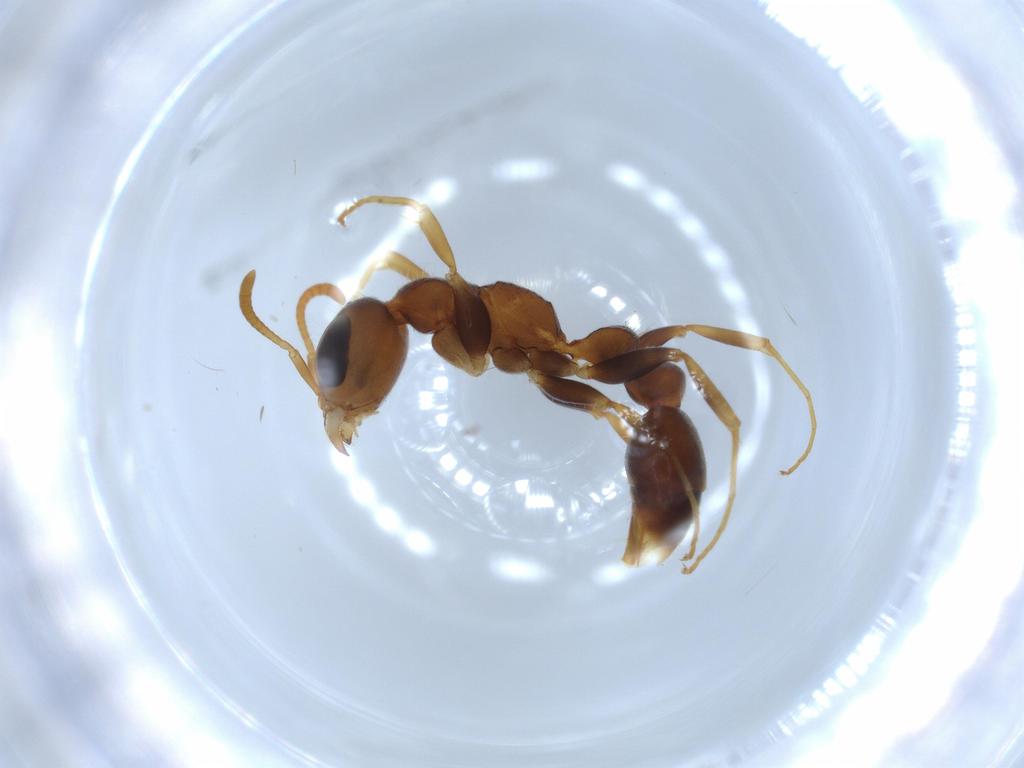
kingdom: Animalia
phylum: Arthropoda
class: Insecta
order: Hymenoptera
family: Formicidae
